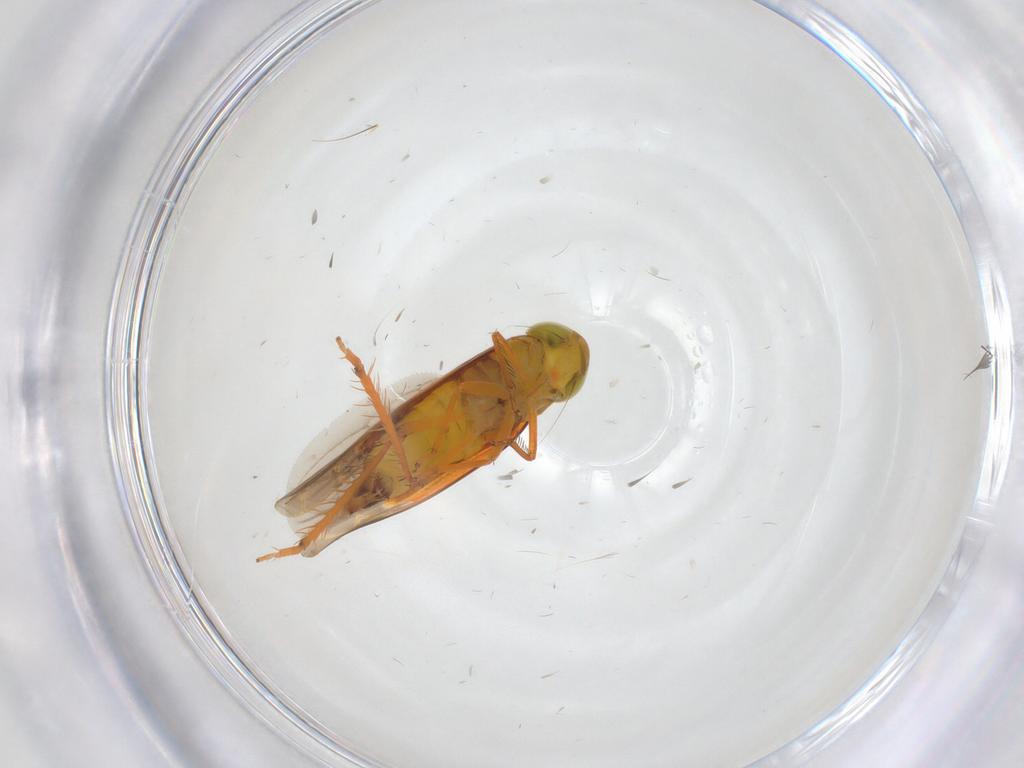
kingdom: Animalia
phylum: Arthropoda
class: Insecta
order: Hemiptera
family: Cicadellidae
